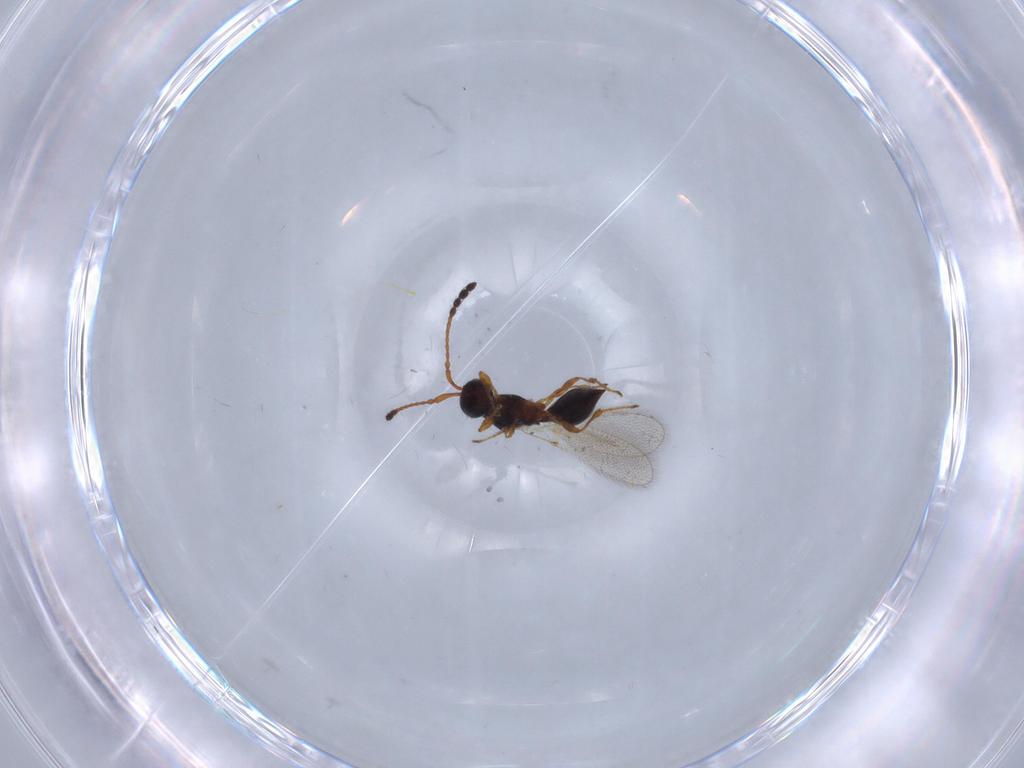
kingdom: Animalia
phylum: Arthropoda
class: Insecta
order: Hymenoptera
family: Diapriidae
